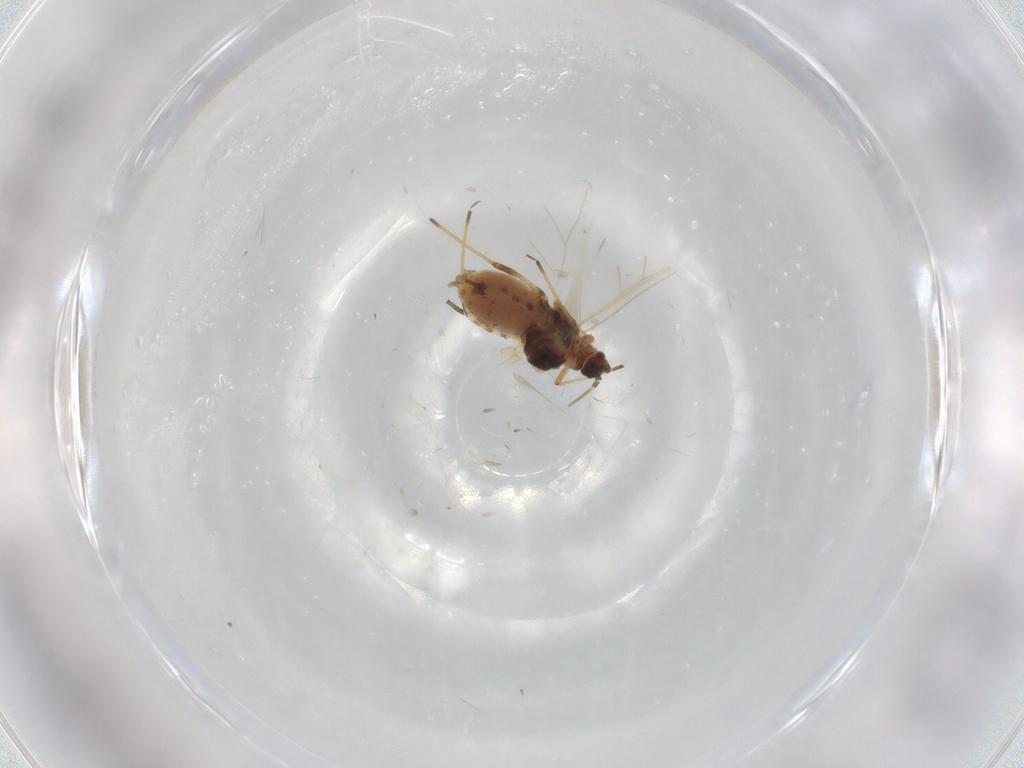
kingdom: Animalia
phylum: Arthropoda
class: Insecta
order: Hemiptera
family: Aphididae
